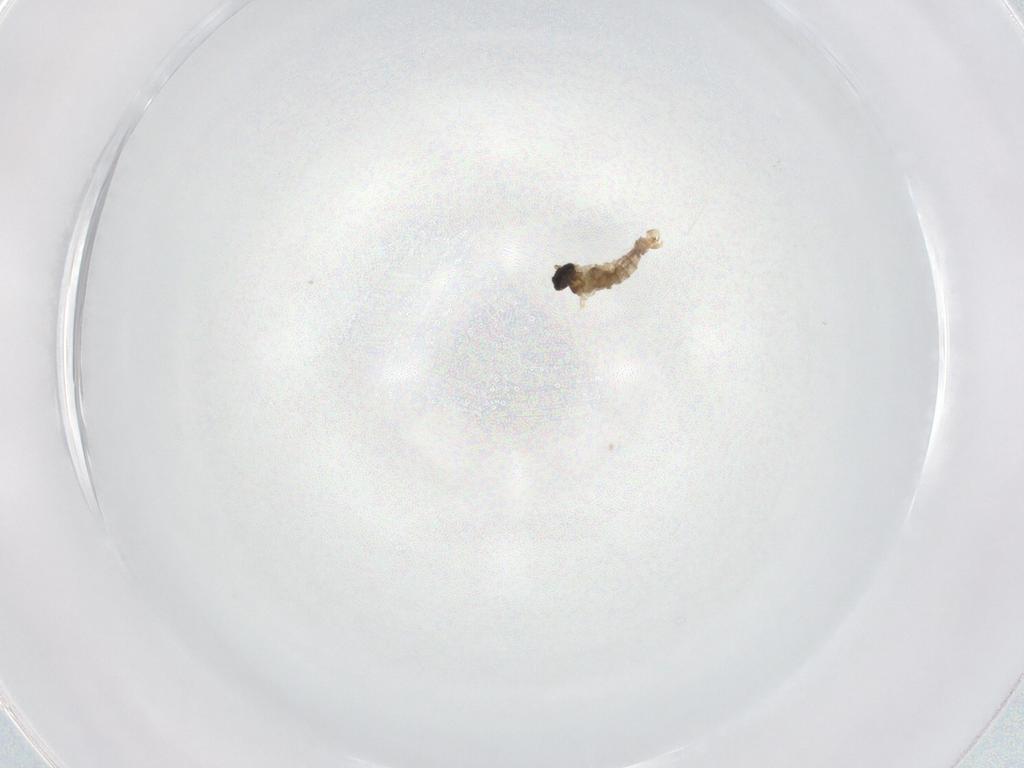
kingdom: Animalia
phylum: Arthropoda
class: Insecta
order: Diptera
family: Cecidomyiidae
